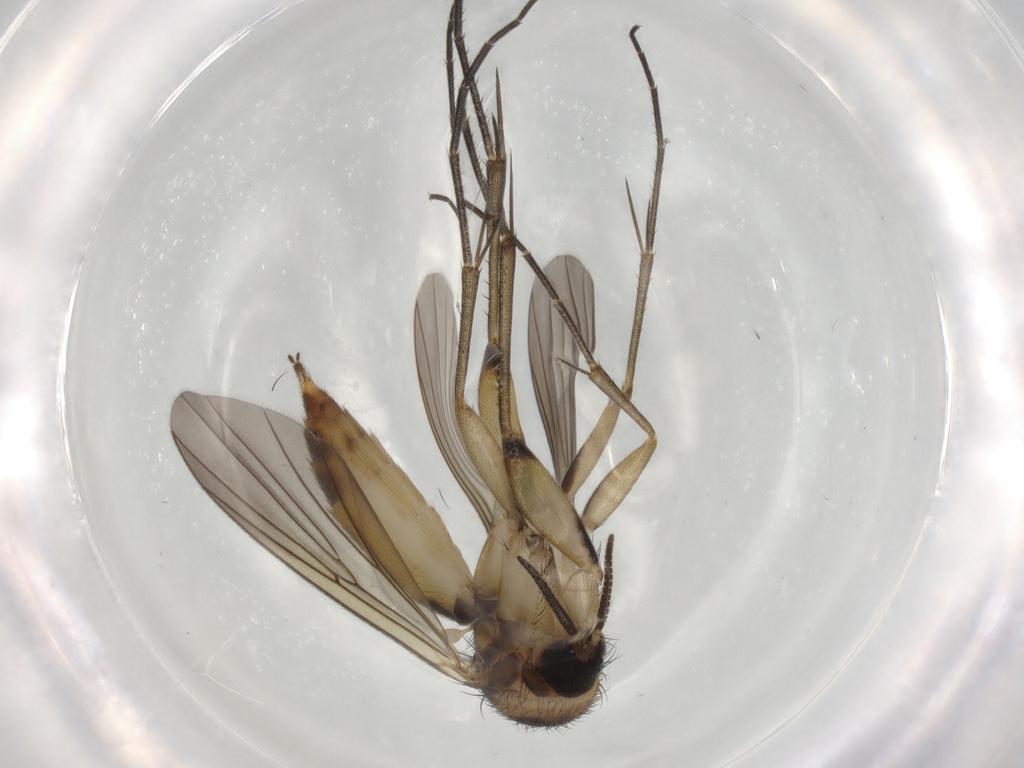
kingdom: Animalia
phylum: Arthropoda
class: Insecta
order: Diptera
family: Mycetophilidae
